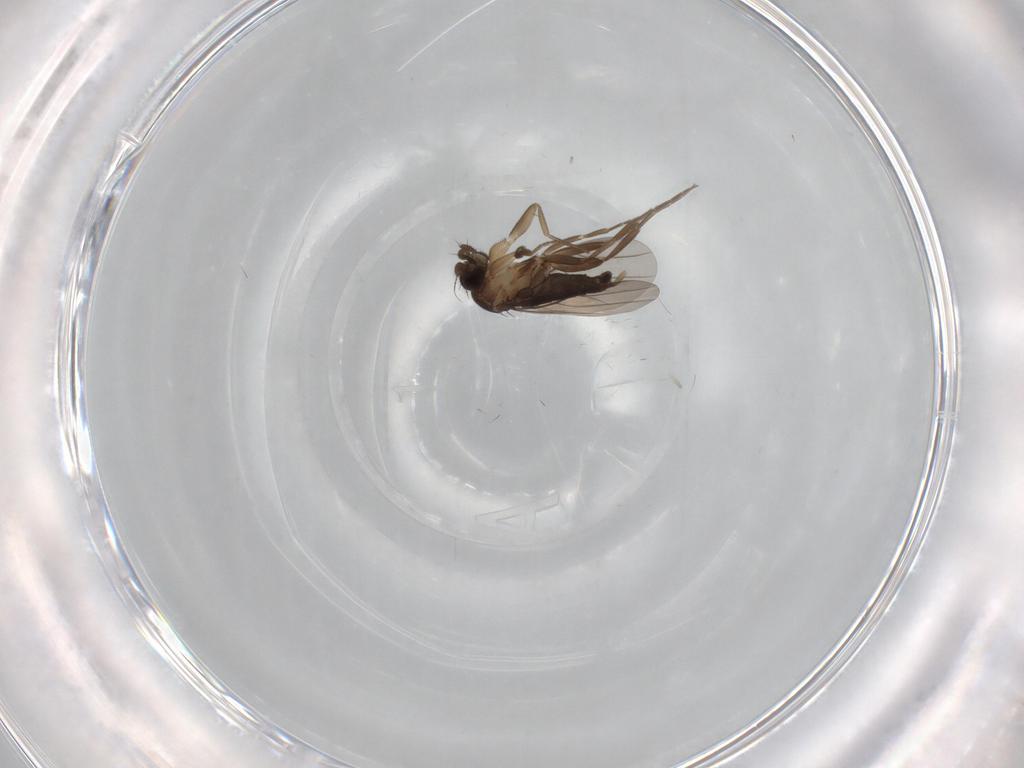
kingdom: Animalia
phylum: Arthropoda
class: Insecta
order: Diptera
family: Phoridae
